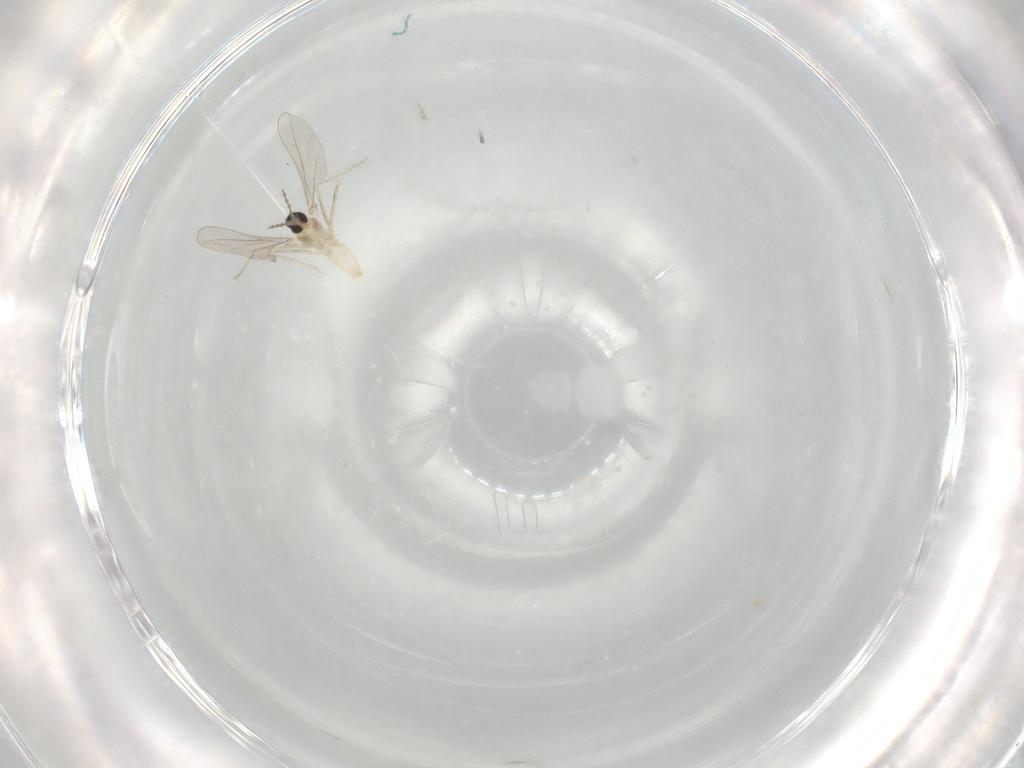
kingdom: Animalia
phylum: Arthropoda
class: Insecta
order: Diptera
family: Cecidomyiidae
